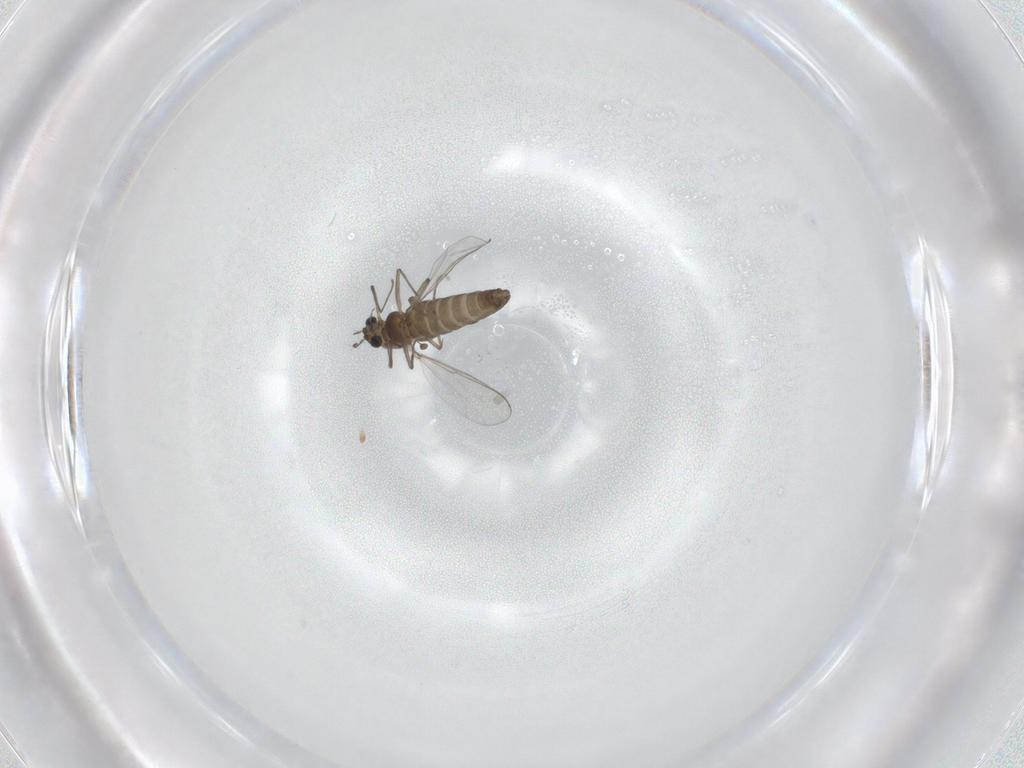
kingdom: Animalia
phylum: Arthropoda
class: Insecta
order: Diptera
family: Chironomidae
